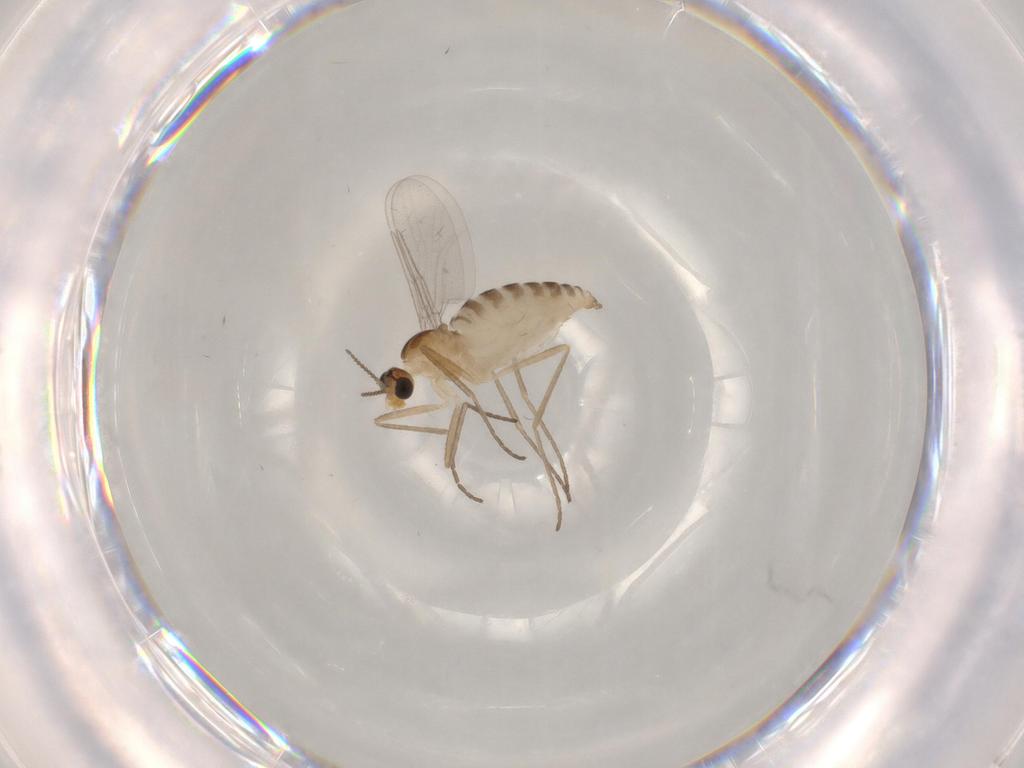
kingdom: Animalia
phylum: Arthropoda
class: Insecta
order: Diptera
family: Cecidomyiidae
